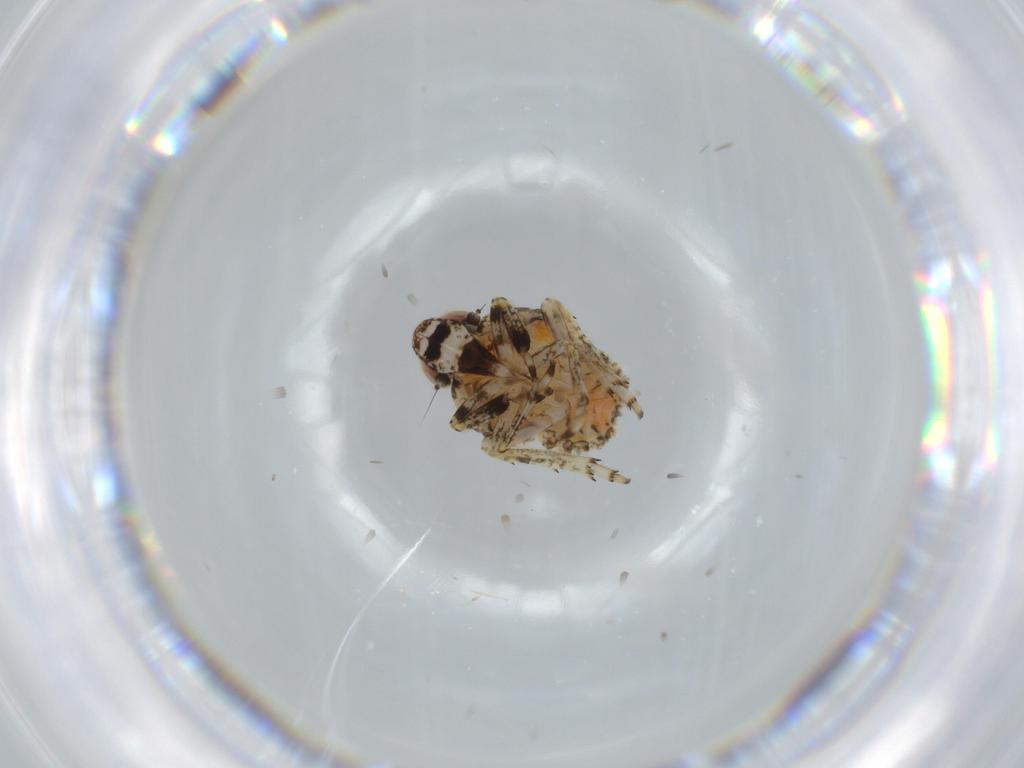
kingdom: Animalia
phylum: Arthropoda
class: Insecta
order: Hemiptera
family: Issidae
